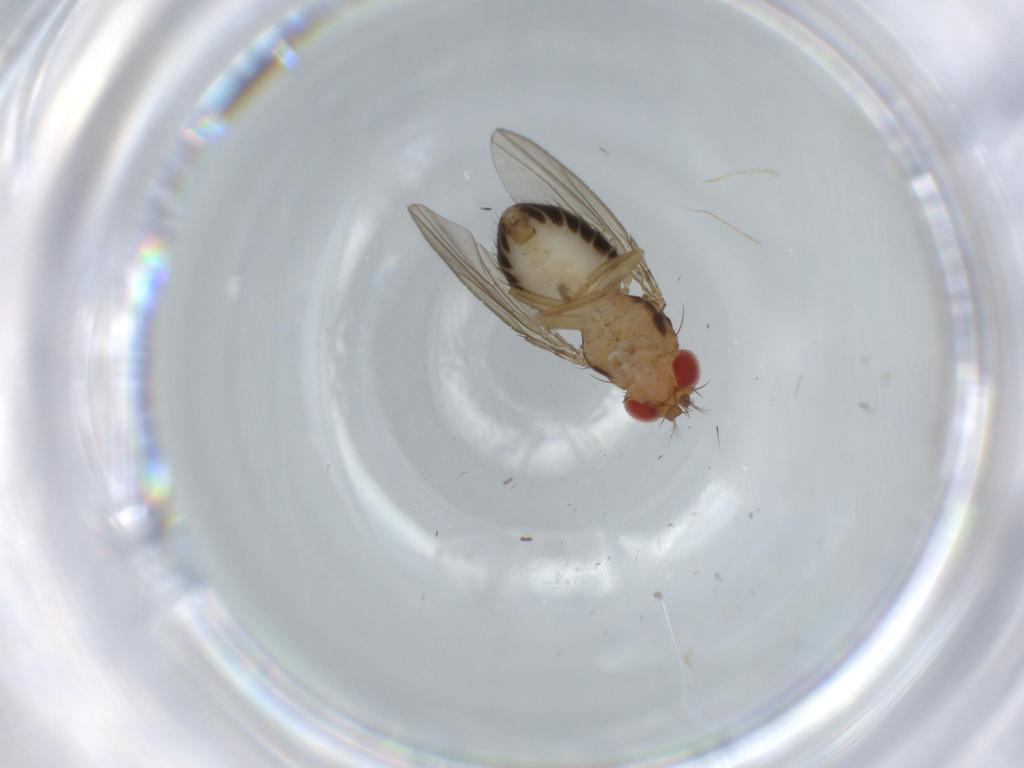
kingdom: Animalia
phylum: Arthropoda
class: Insecta
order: Diptera
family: Drosophilidae
